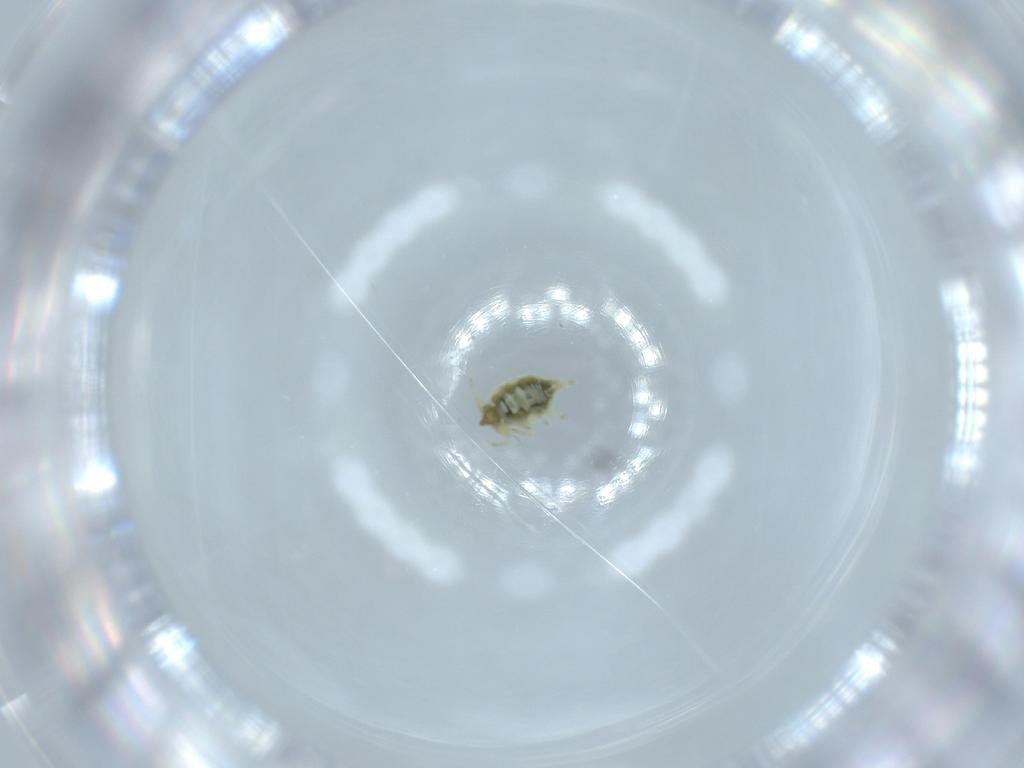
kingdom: Animalia
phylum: Arthropoda
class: Insecta
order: Neuroptera
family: Coniopterygidae
